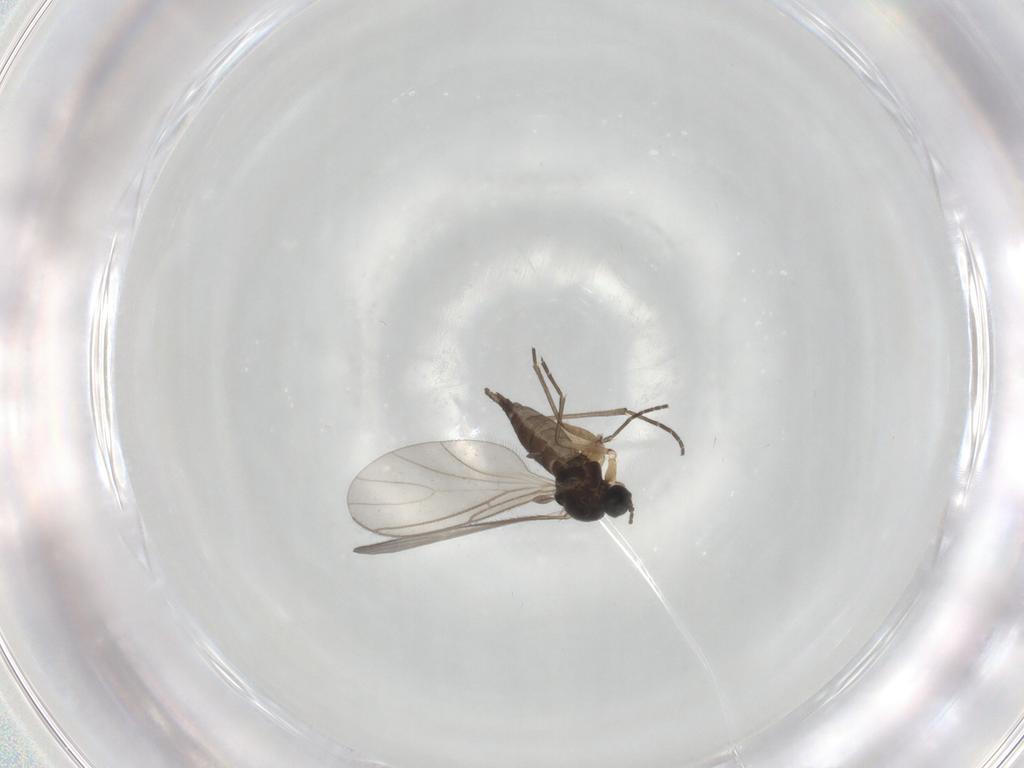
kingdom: Animalia
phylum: Arthropoda
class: Insecta
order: Diptera
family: Sciaridae
